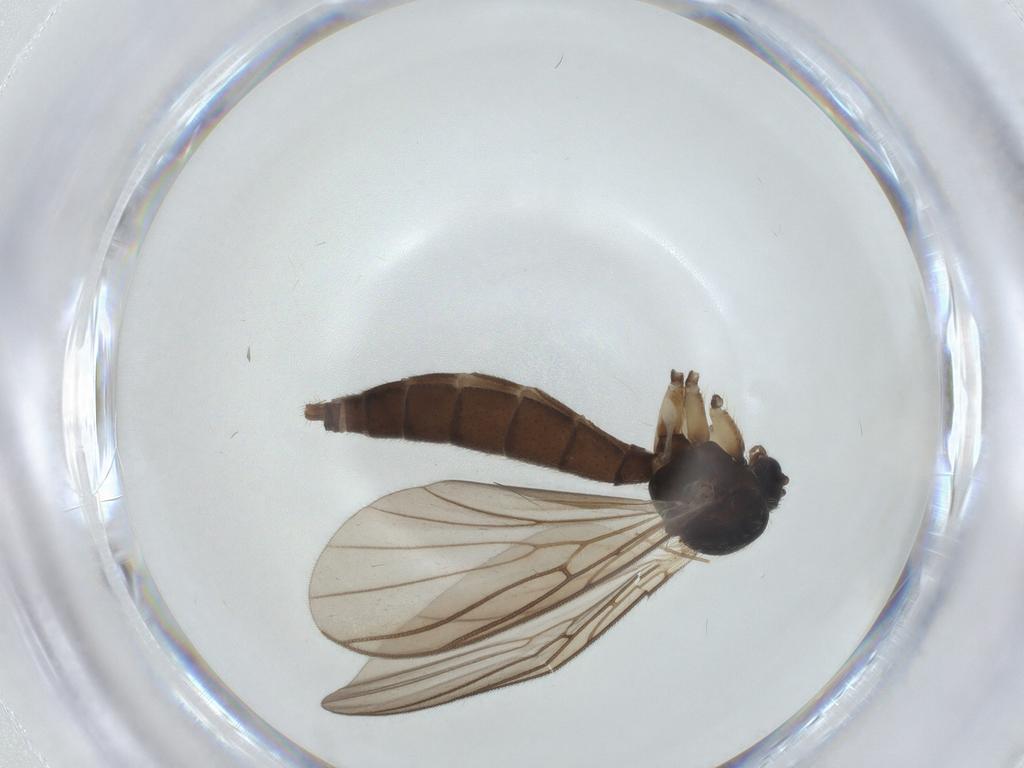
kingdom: Animalia
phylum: Arthropoda
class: Insecta
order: Diptera
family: Mycetophilidae
